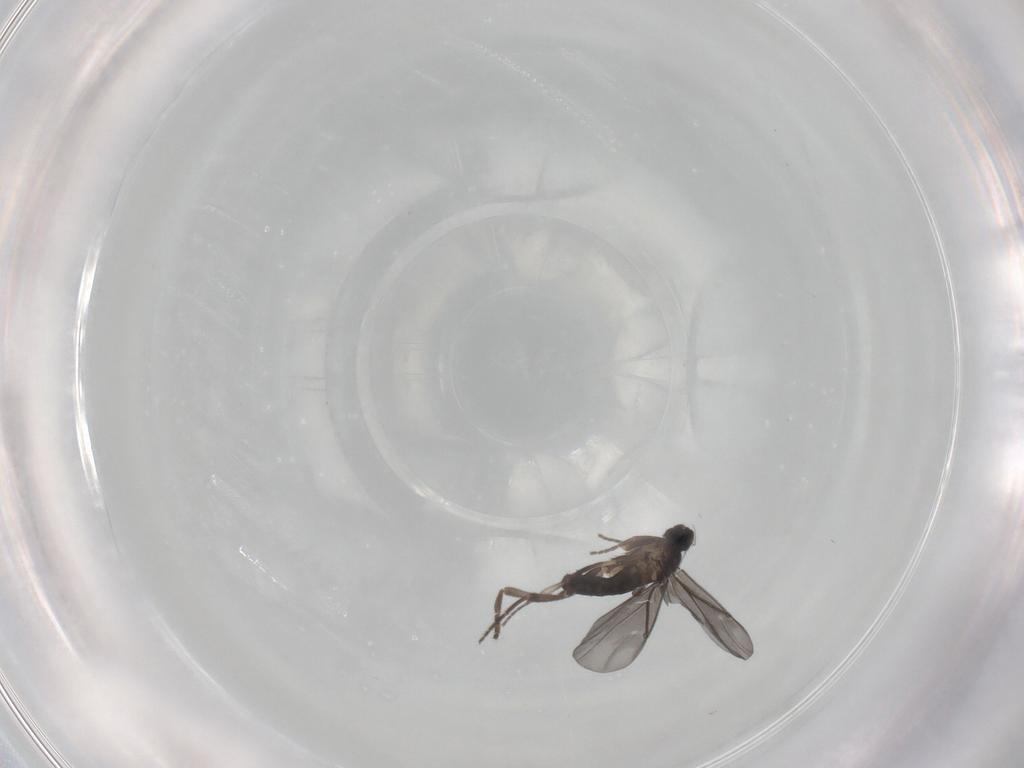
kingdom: Animalia
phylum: Arthropoda
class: Insecta
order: Diptera
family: Phoridae
